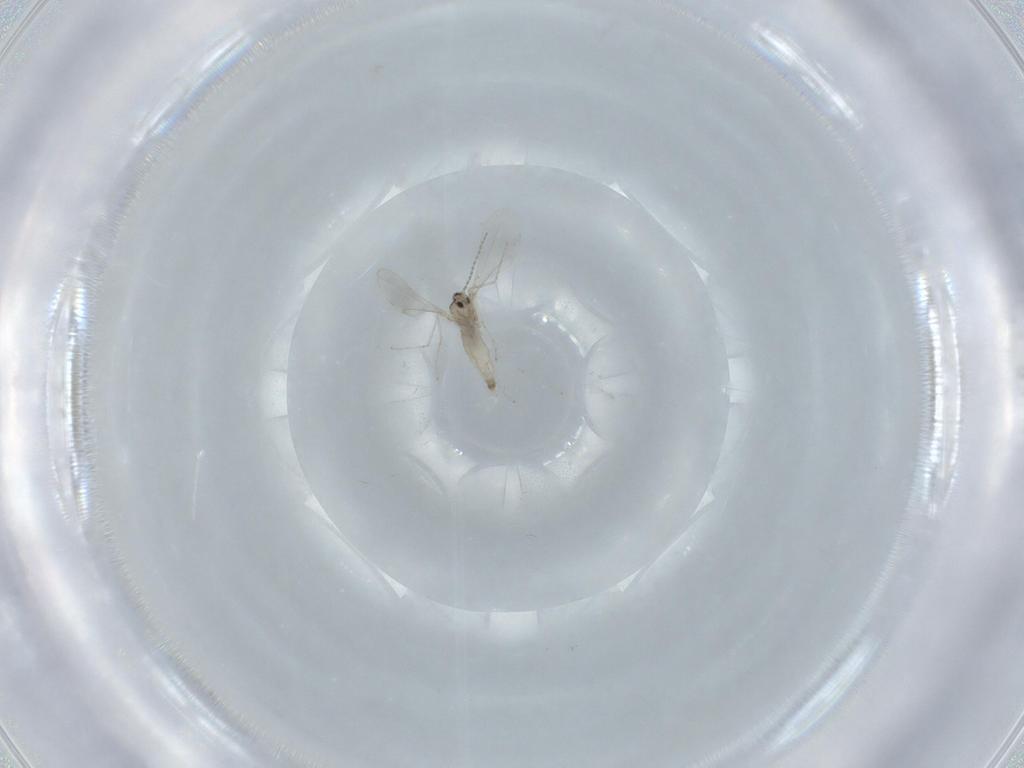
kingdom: Animalia
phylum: Arthropoda
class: Insecta
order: Diptera
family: Cecidomyiidae
